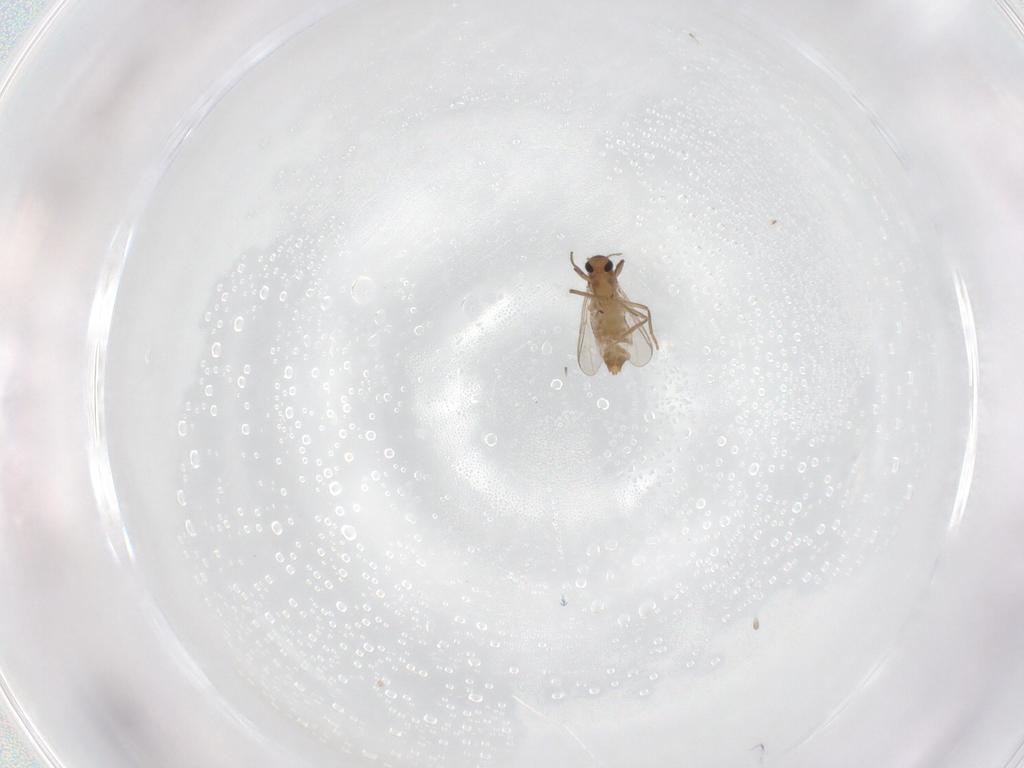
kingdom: Animalia
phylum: Arthropoda
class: Insecta
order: Diptera
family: Chironomidae
